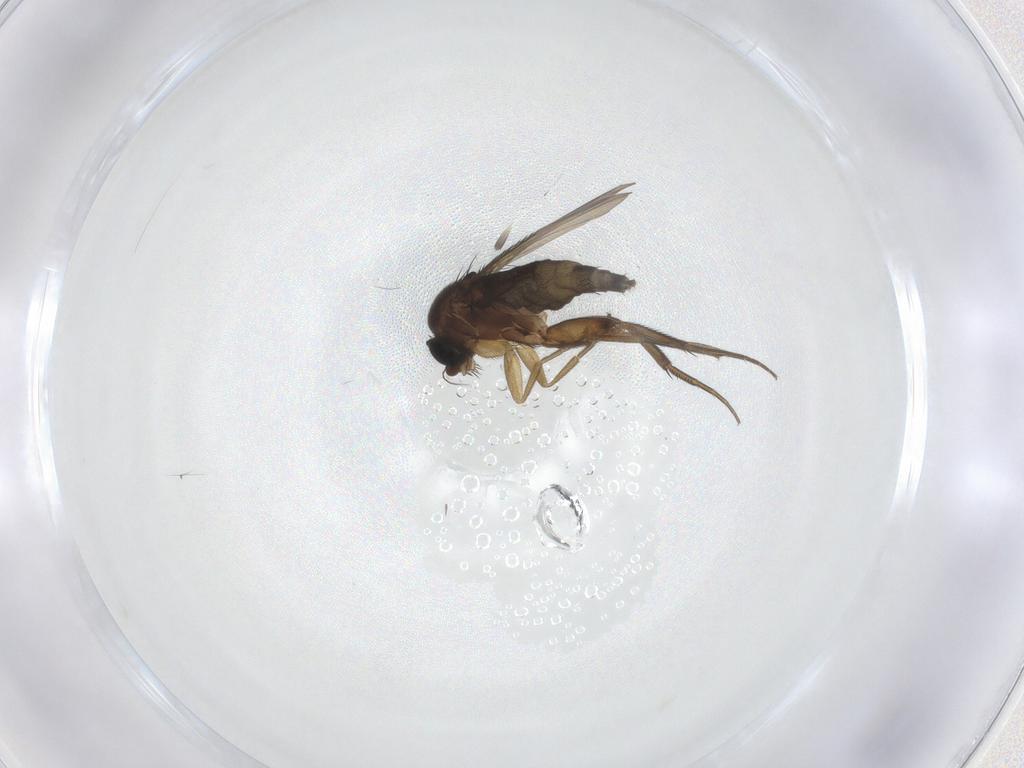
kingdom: Animalia
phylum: Arthropoda
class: Insecta
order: Diptera
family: Phoridae
